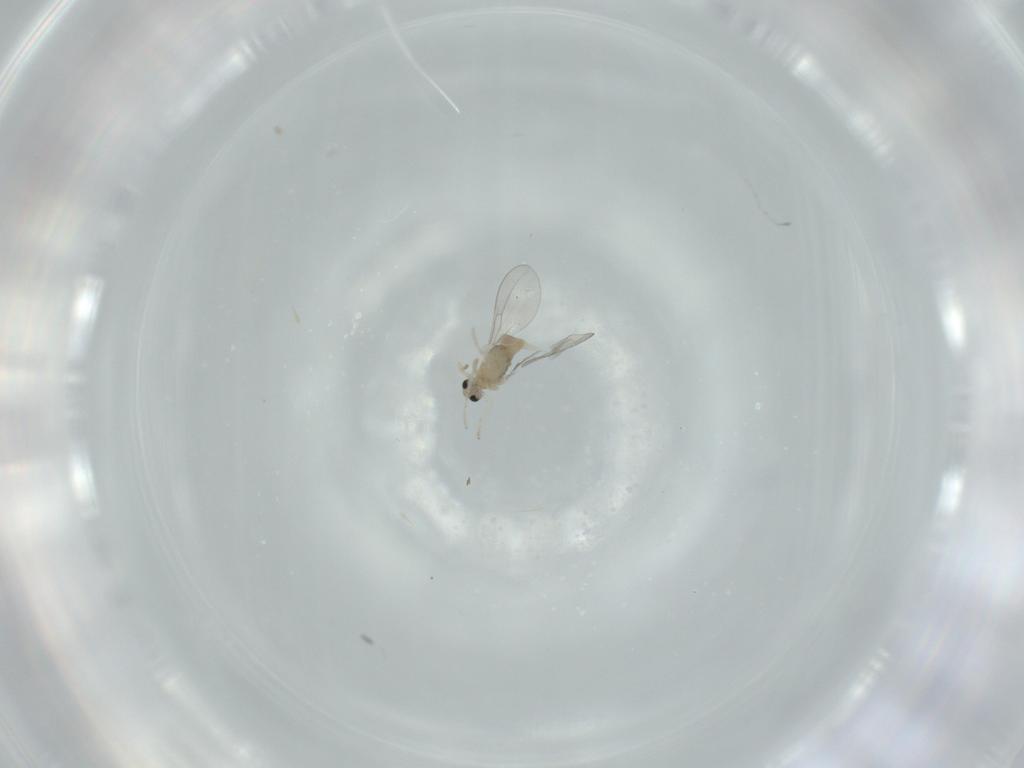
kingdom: Animalia
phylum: Arthropoda
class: Insecta
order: Diptera
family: Cecidomyiidae
